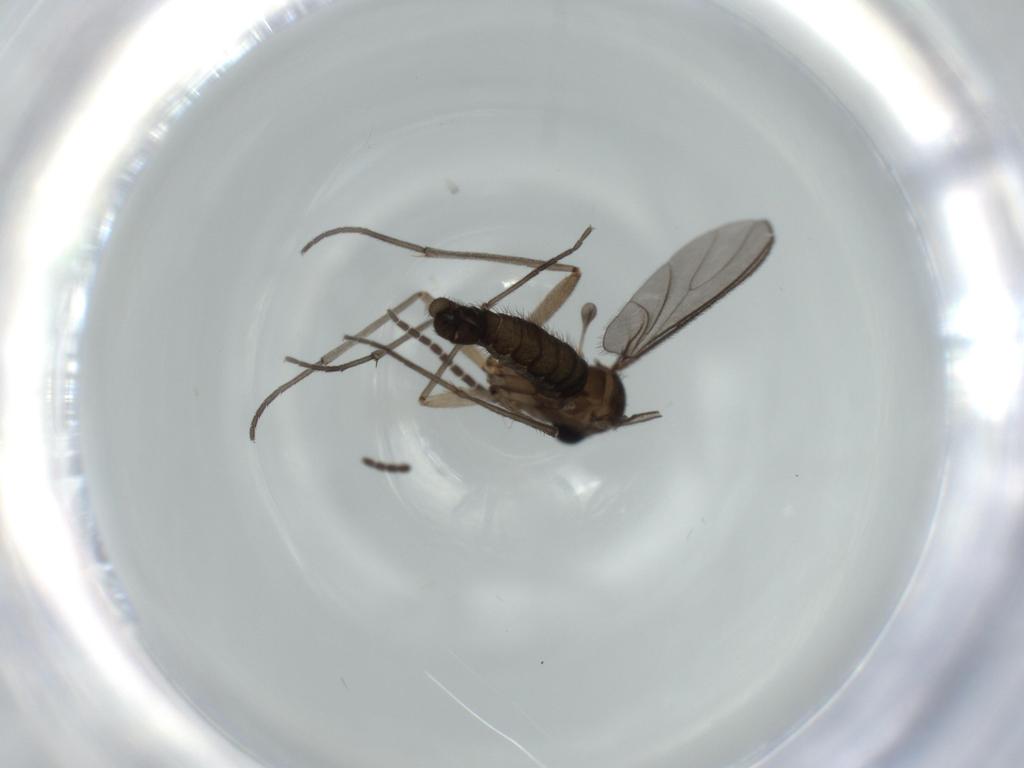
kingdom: Animalia
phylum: Arthropoda
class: Insecta
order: Diptera
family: Sciaridae
